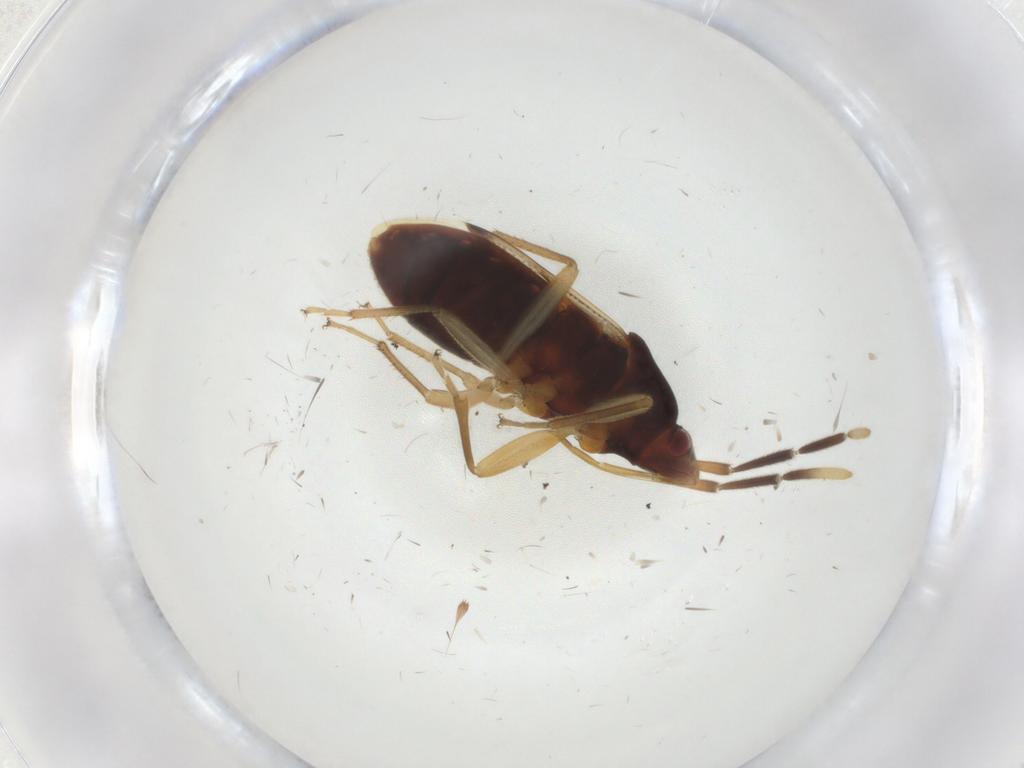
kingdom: Animalia
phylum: Arthropoda
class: Insecta
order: Hemiptera
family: Rhyparochromidae
